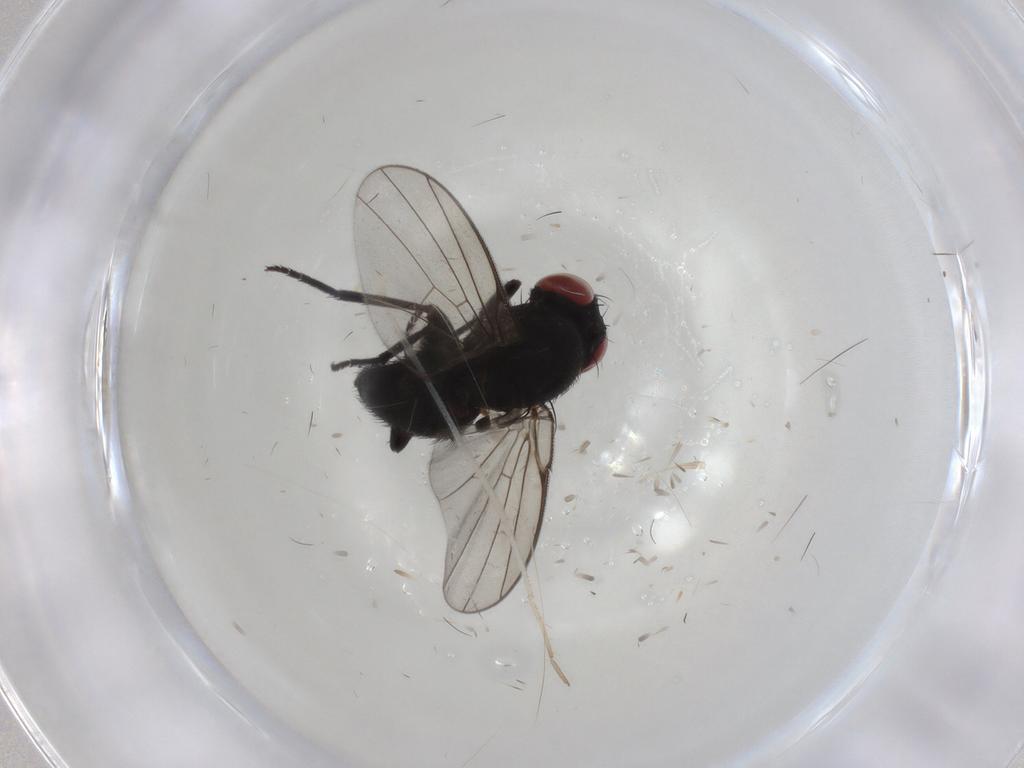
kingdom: Animalia
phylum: Arthropoda
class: Insecta
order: Diptera
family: Agromyzidae
